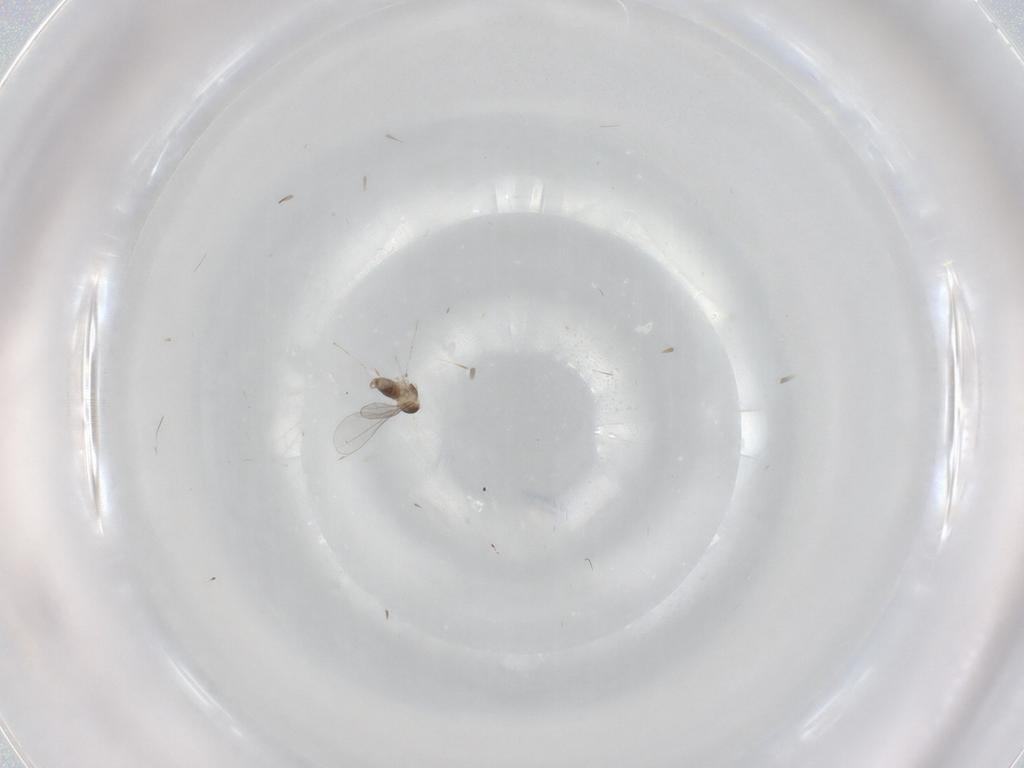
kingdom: Animalia
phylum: Arthropoda
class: Insecta
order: Diptera
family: Cecidomyiidae
